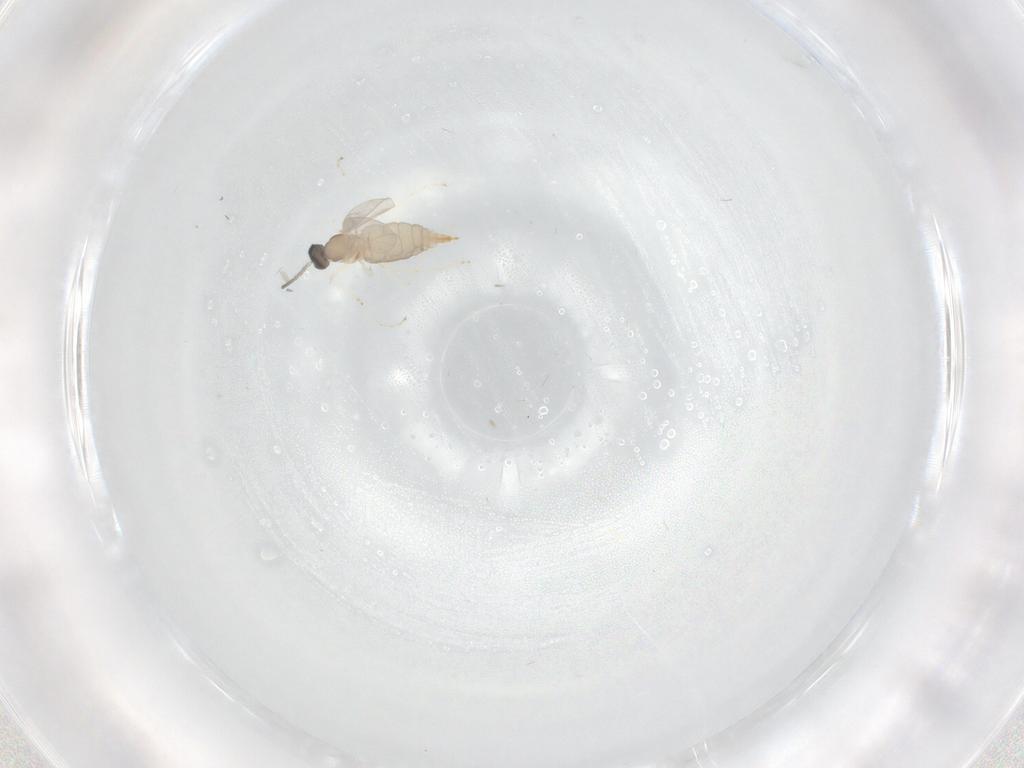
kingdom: Animalia
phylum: Arthropoda
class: Insecta
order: Diptera
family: Cecidomyiidae
